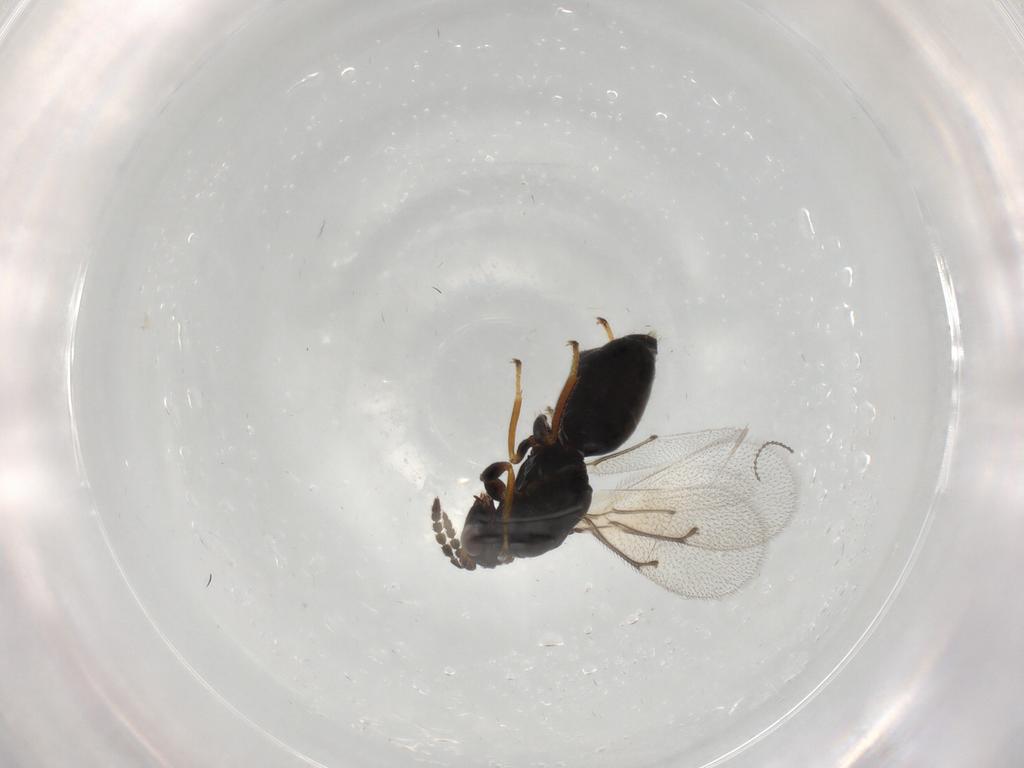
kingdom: Animalia
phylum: Arthropoda
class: Insecta
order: Hymenoptera
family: Eulophidae
